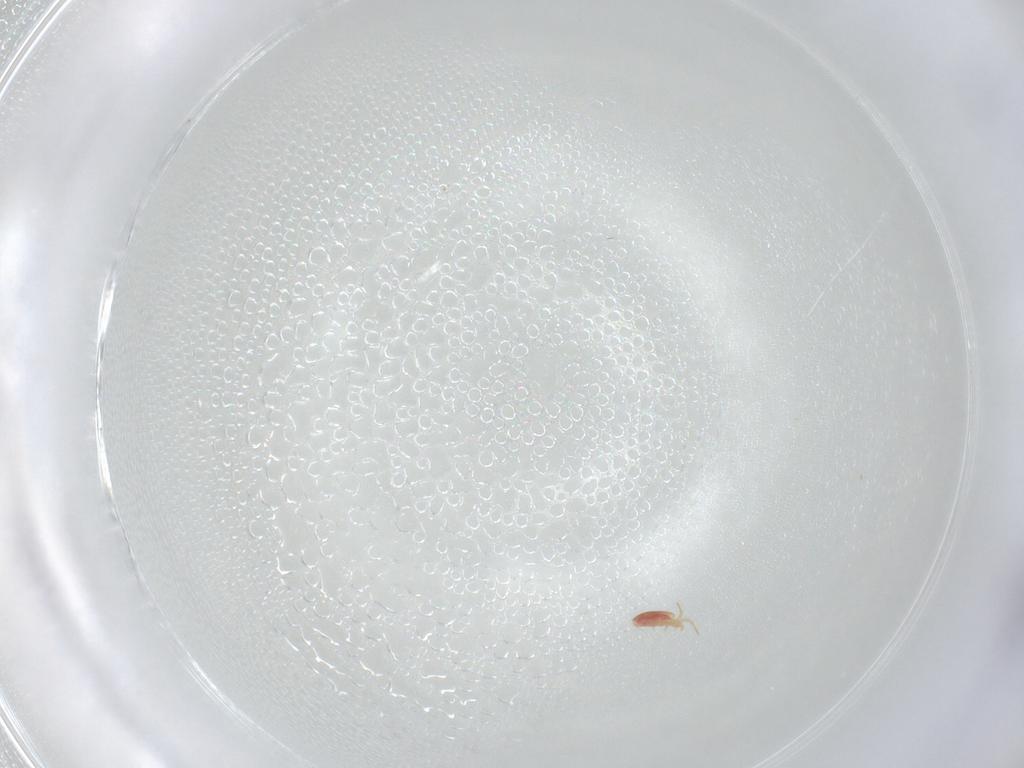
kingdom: Animalia
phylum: Arthropoda
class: Arachnida
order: Mesostigmata
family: Phytoseiidae
